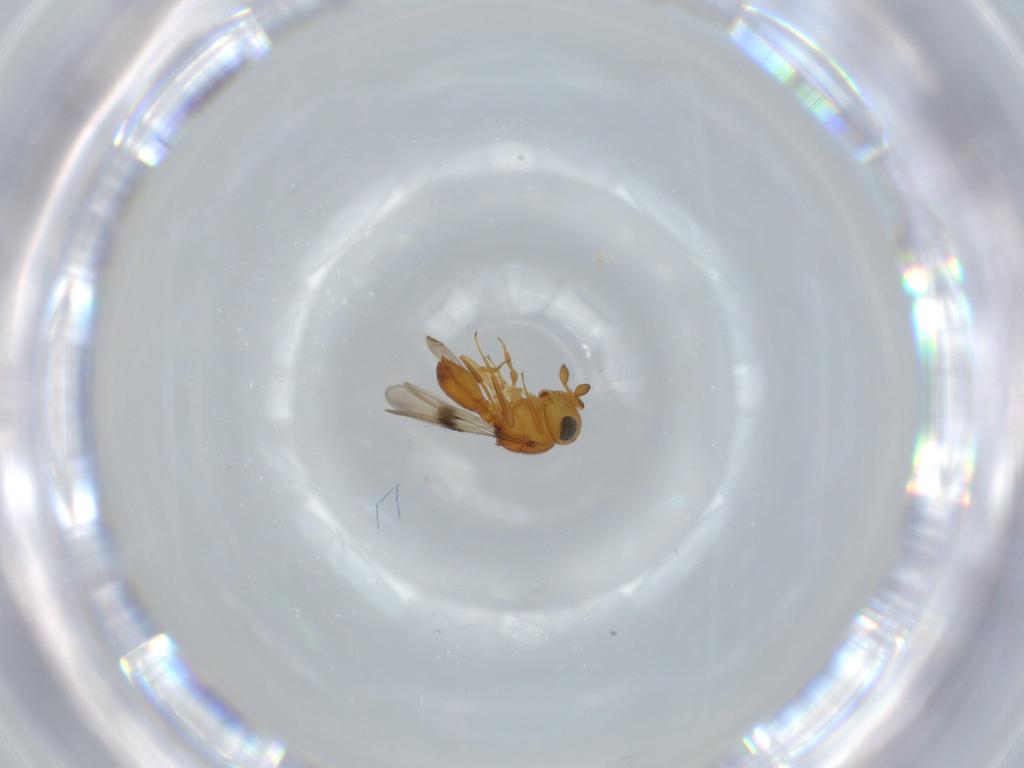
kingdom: Animalia
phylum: Arthropoda
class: Insecta
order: Hymenoptera
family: Scelionidae
